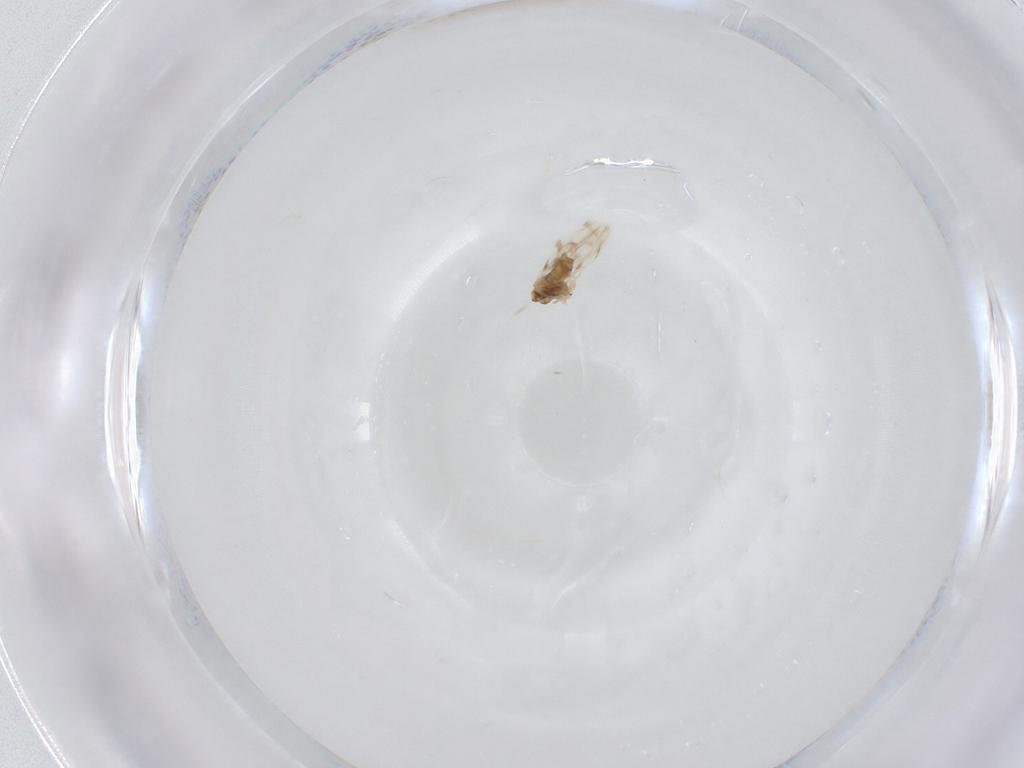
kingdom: Animalia
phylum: Arthropoda
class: Insecta
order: Hemiptera
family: Aleyrodidae
